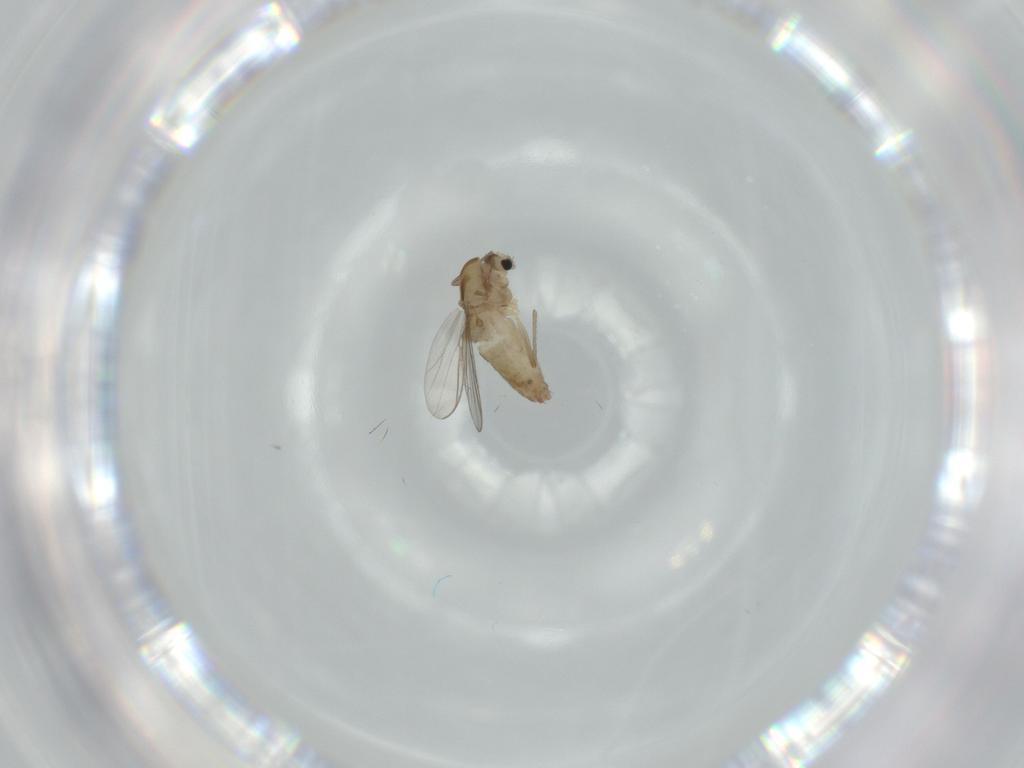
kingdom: Animalia
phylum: Arthropoda
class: Insecta
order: Diptera
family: Chironomidae
